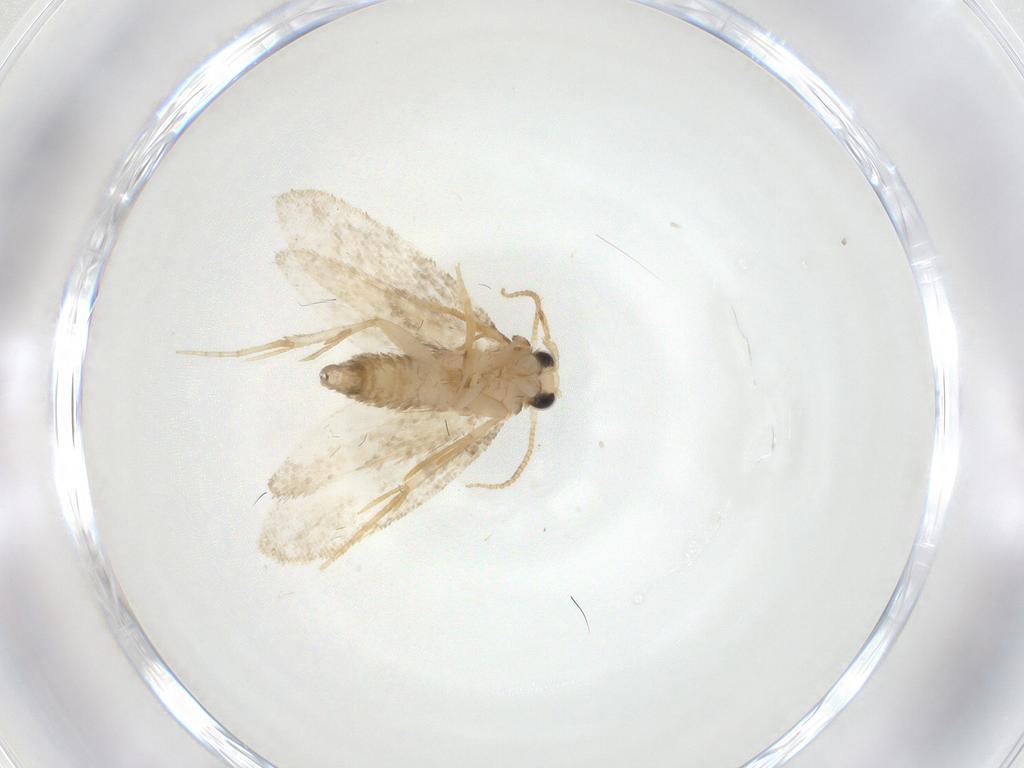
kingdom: Animalia
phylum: Arthropoda
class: Insecta
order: Lepidoptera
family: Psychidae
